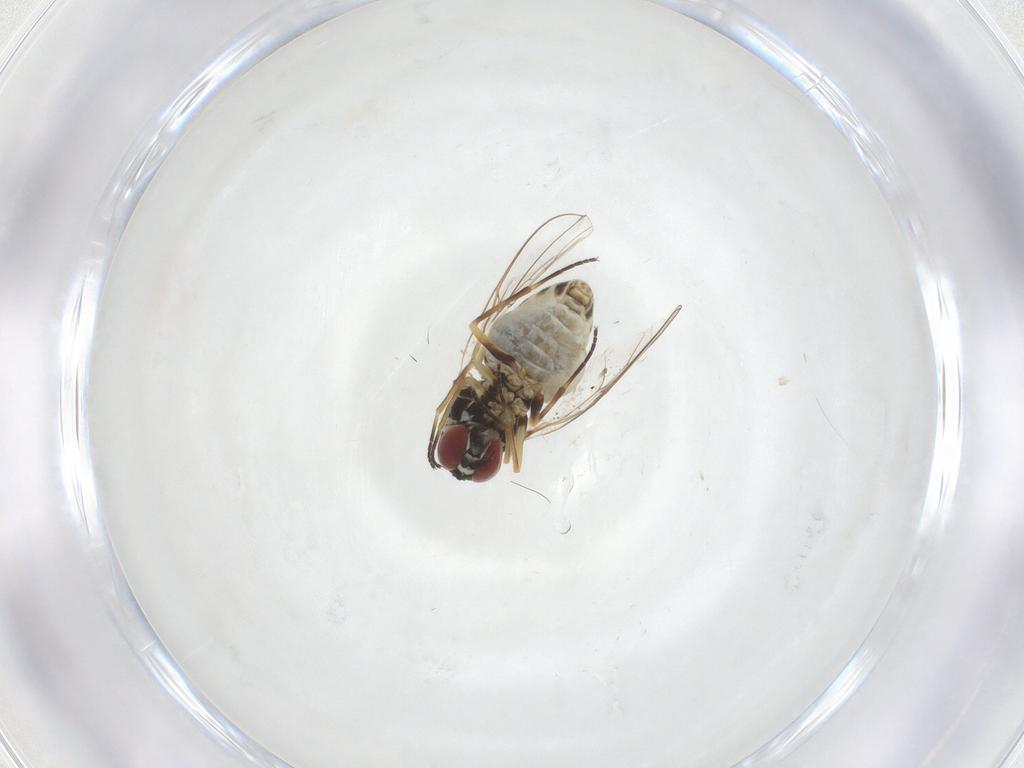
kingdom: Animalia
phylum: Arthropoda
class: Insecta
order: Diptera
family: Bombyliidae
